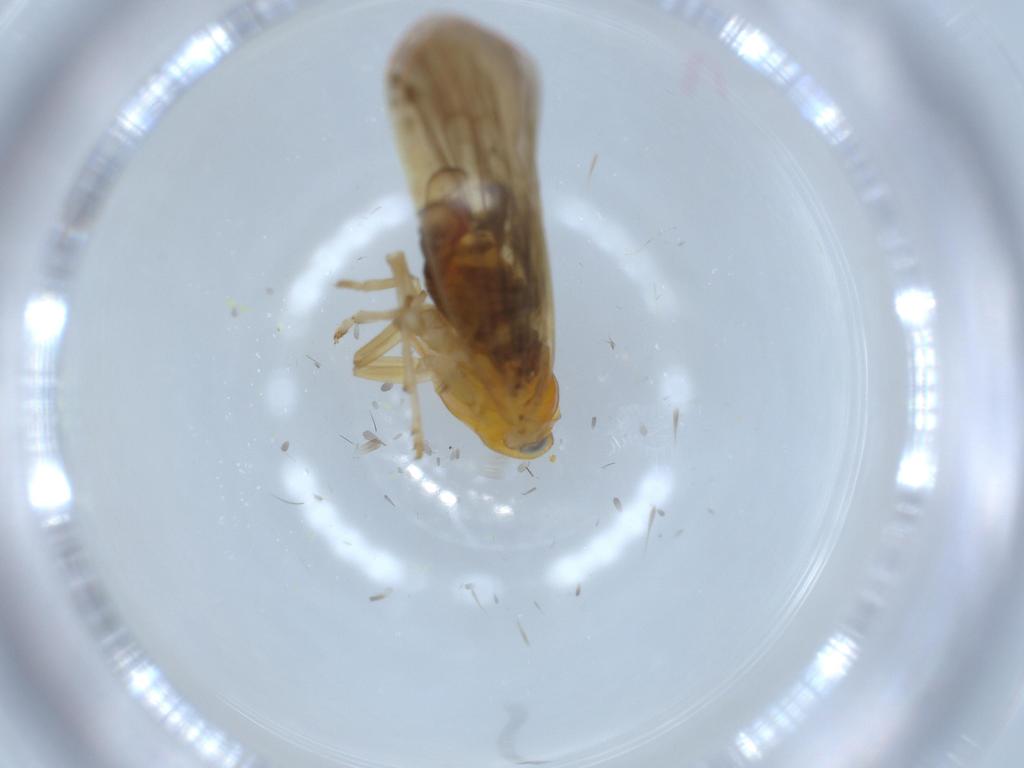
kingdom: Animalia
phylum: Arthropoda
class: Insecta
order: Hemiptera
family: Derbidae
